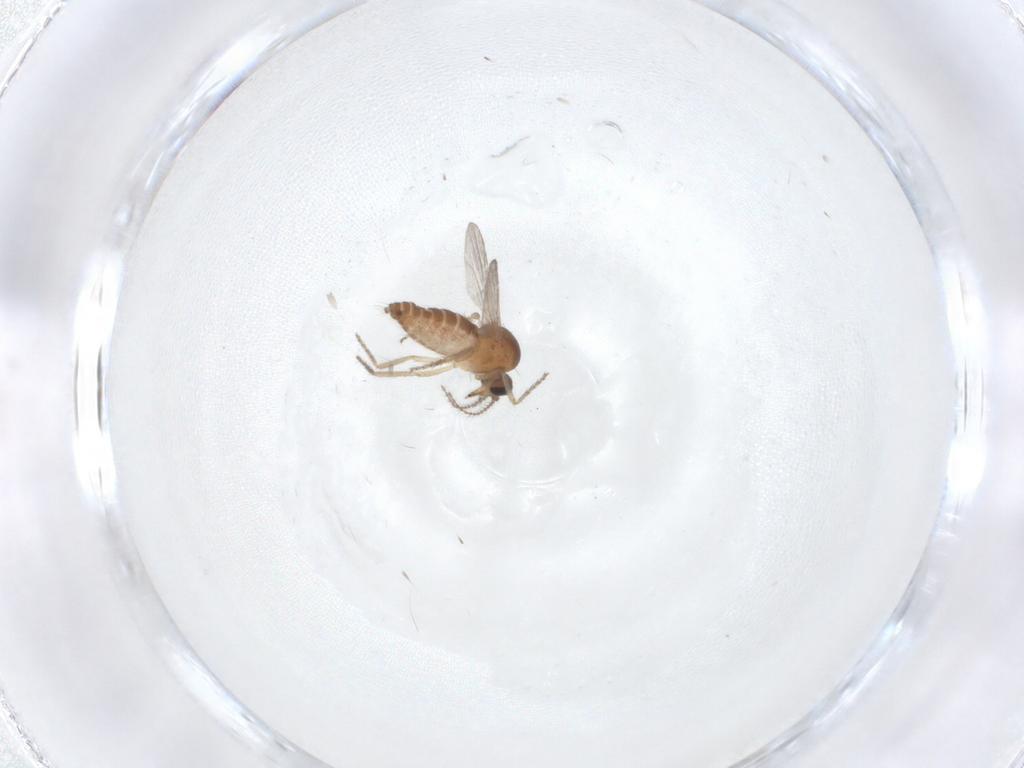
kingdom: Animalia
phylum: Arthropoda
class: Insecta
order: Diptera
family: Ceratopogonidae
